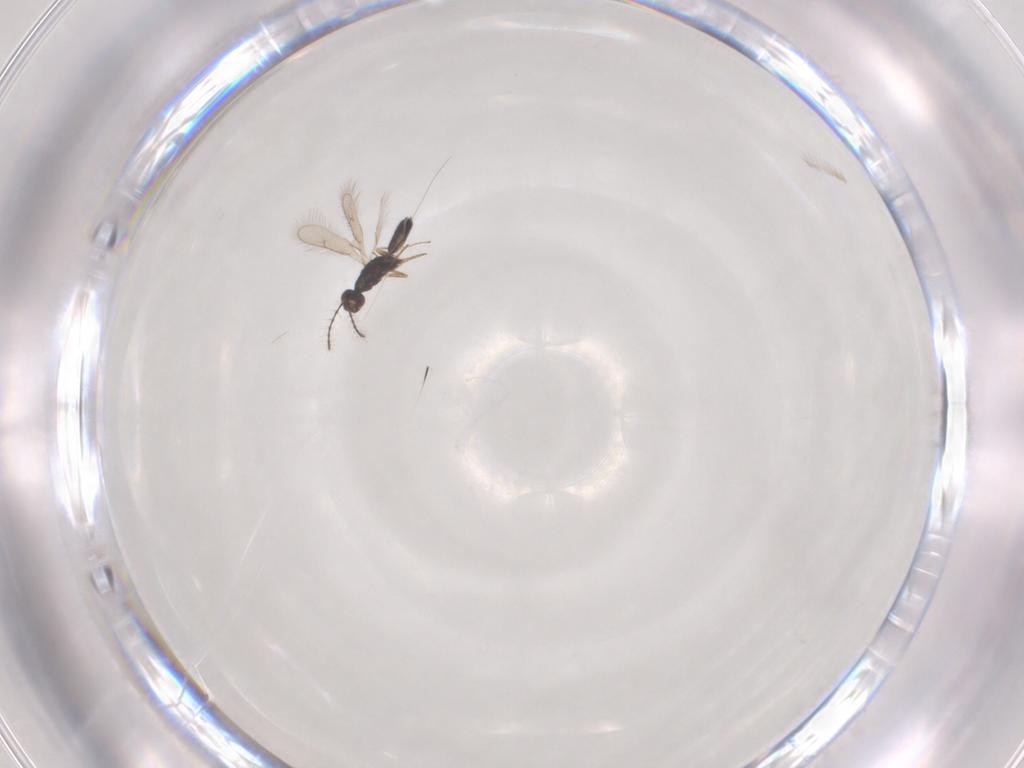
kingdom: Animalia
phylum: Arthropoda
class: Insecta
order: Hymenoptera
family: Pteromalidae
